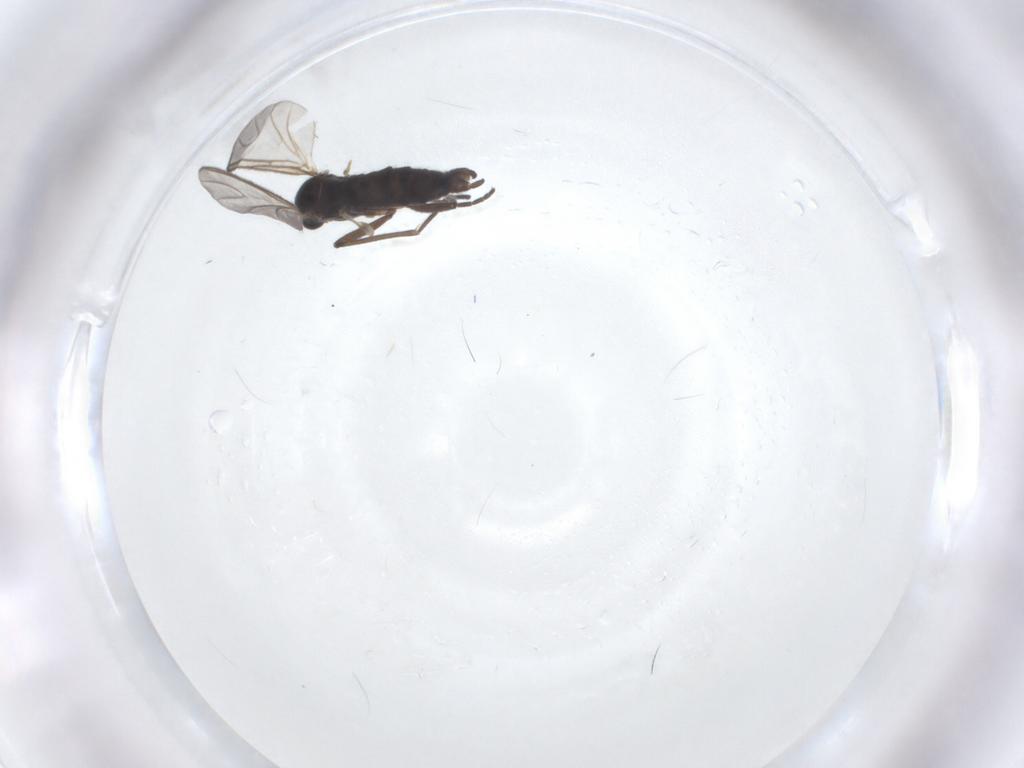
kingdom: Animalia
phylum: Arthropoda
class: Insecta
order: Diptera
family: Sciaridae
